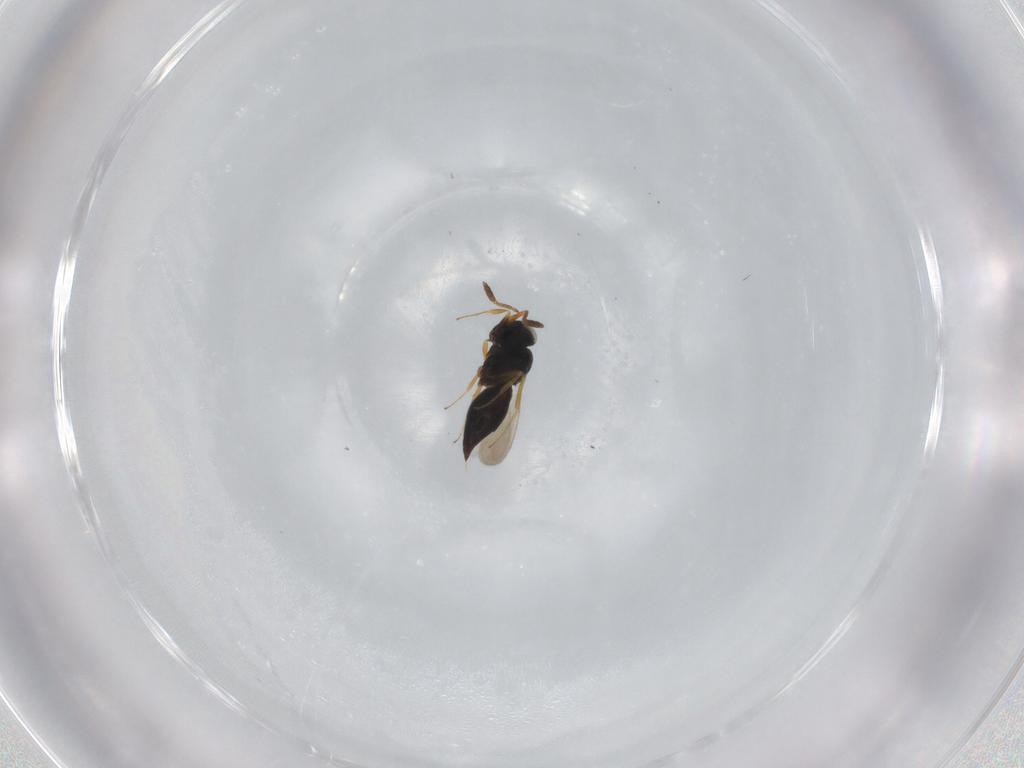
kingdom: Animalia
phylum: Arthropoda
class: Insecta
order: Hymenoptera
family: Scelionidae
